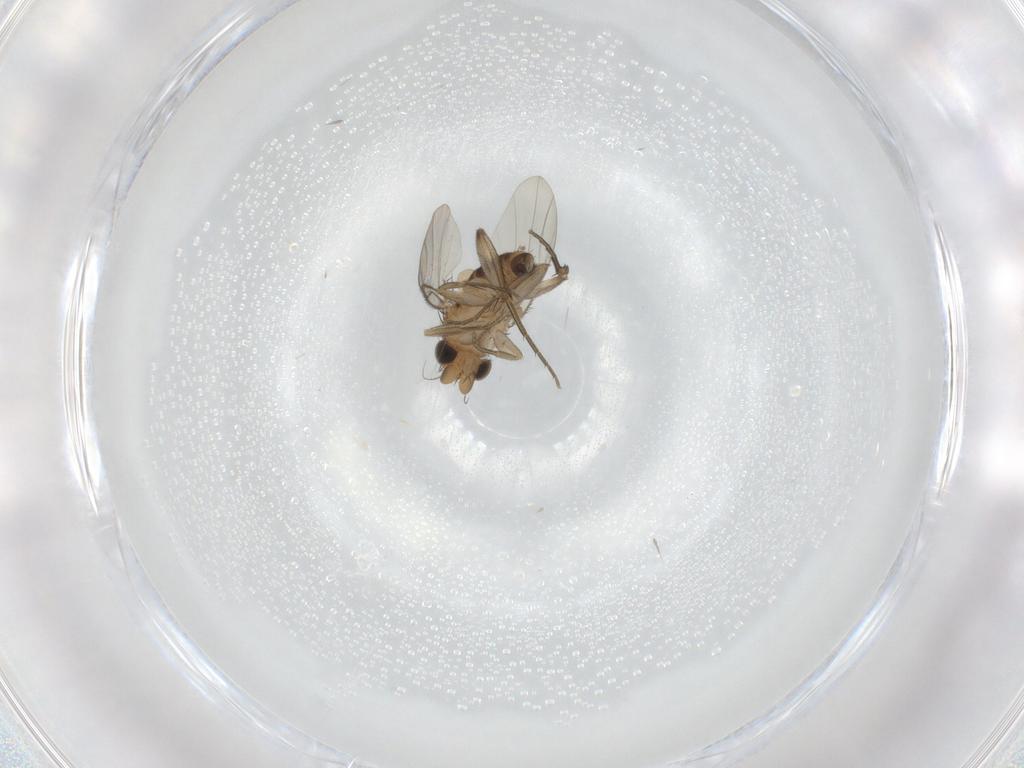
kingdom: Animalia
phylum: Arthropoda
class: Insecta
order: Diptera
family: Phoridae
